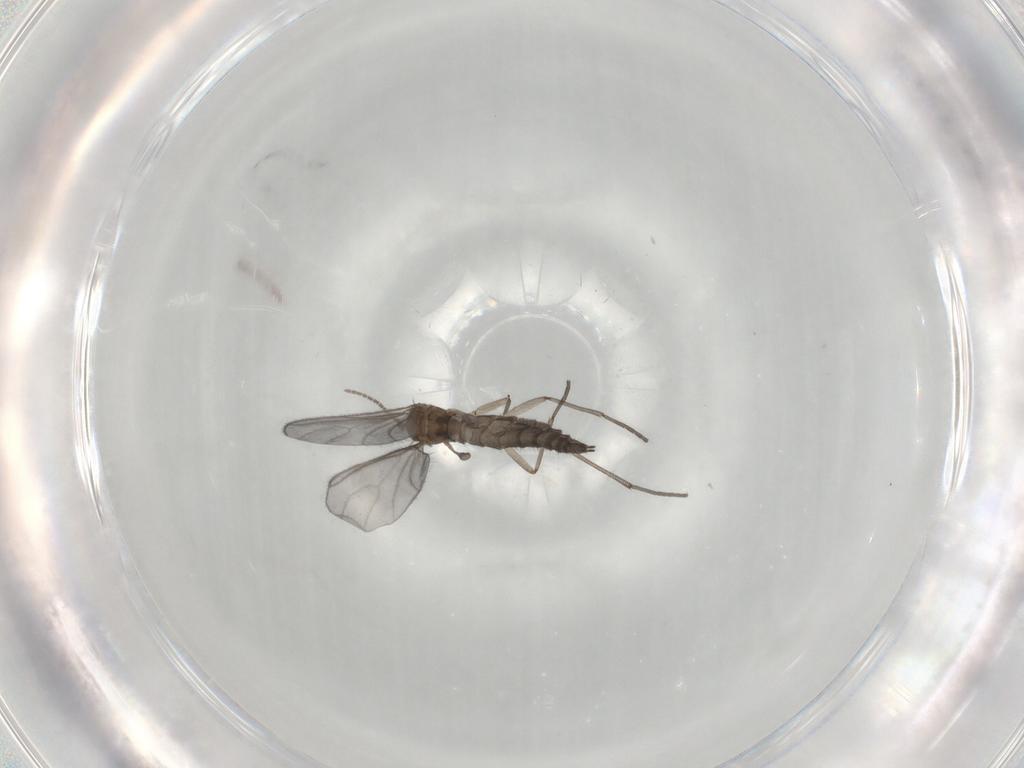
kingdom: Animalia
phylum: Arthropoda
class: Insecta
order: Diptera
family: Sciaridae
